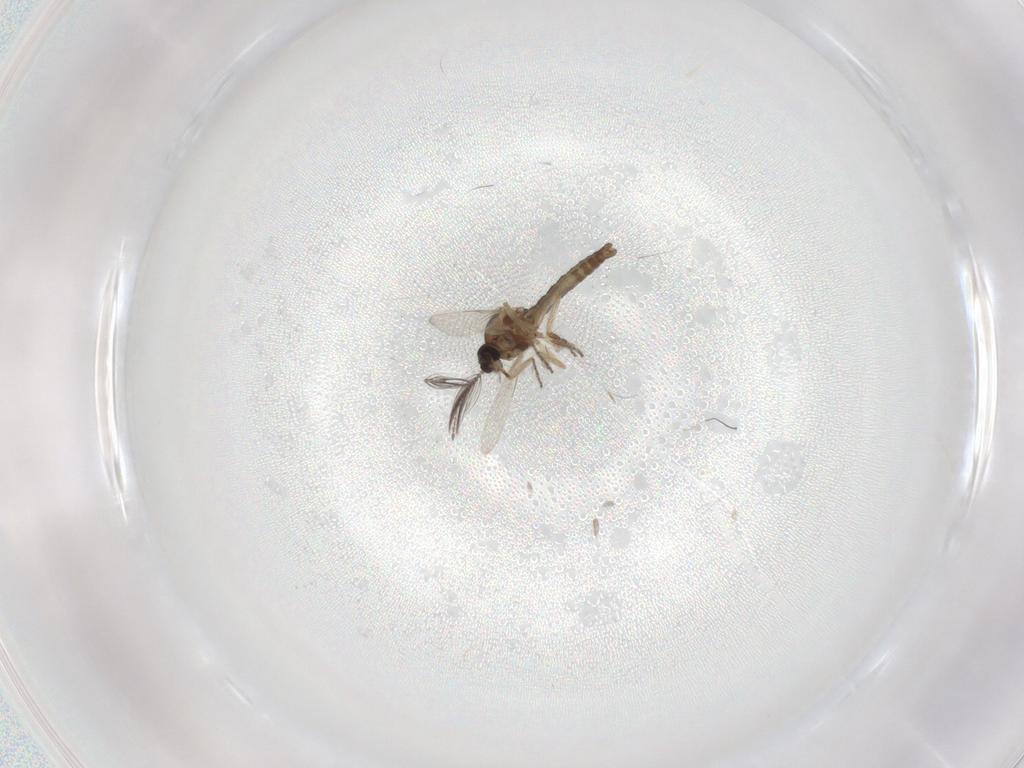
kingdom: Animalia
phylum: Arthropoda
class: Insecta
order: Diptera
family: Ceratopogonidae
